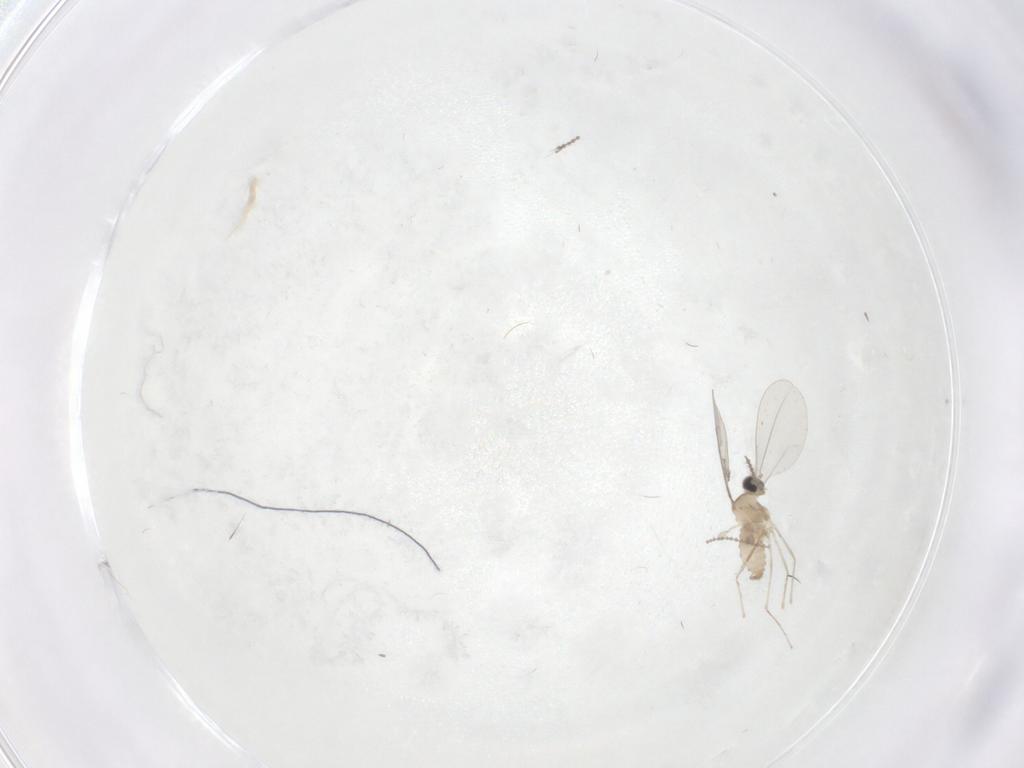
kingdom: Animalia
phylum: Arthropoda
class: Insecta
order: Diptera
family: Cecidomyiidae
